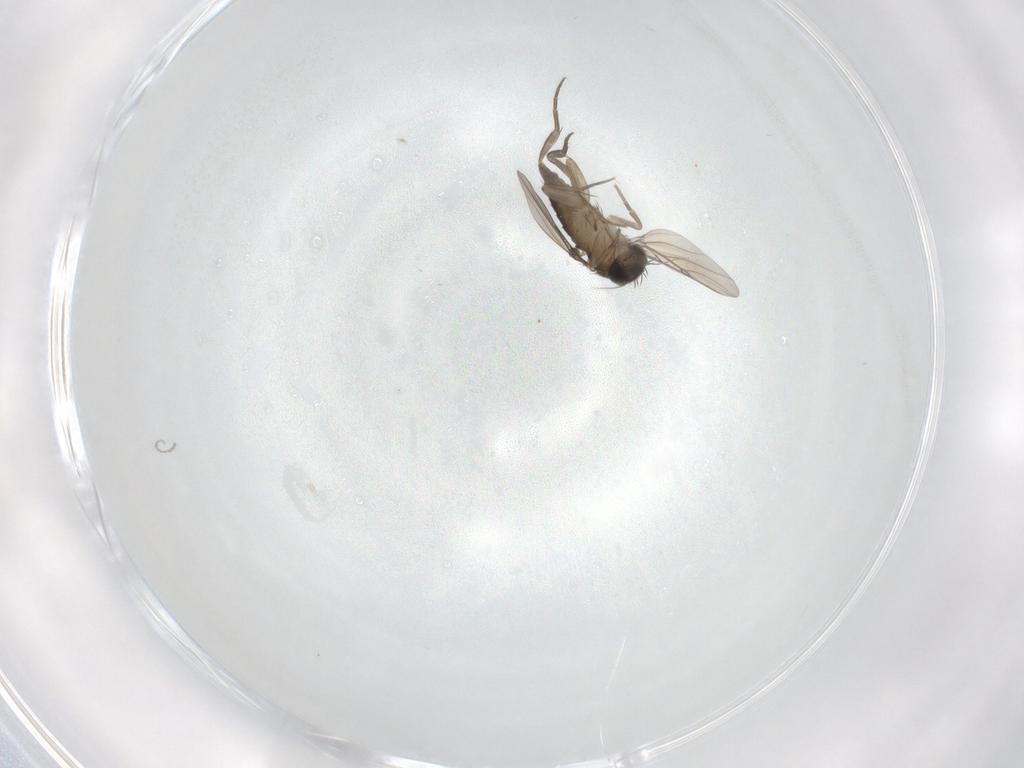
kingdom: Animalia
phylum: Arthropoda
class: Insecta
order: Diptera
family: Phoridae
